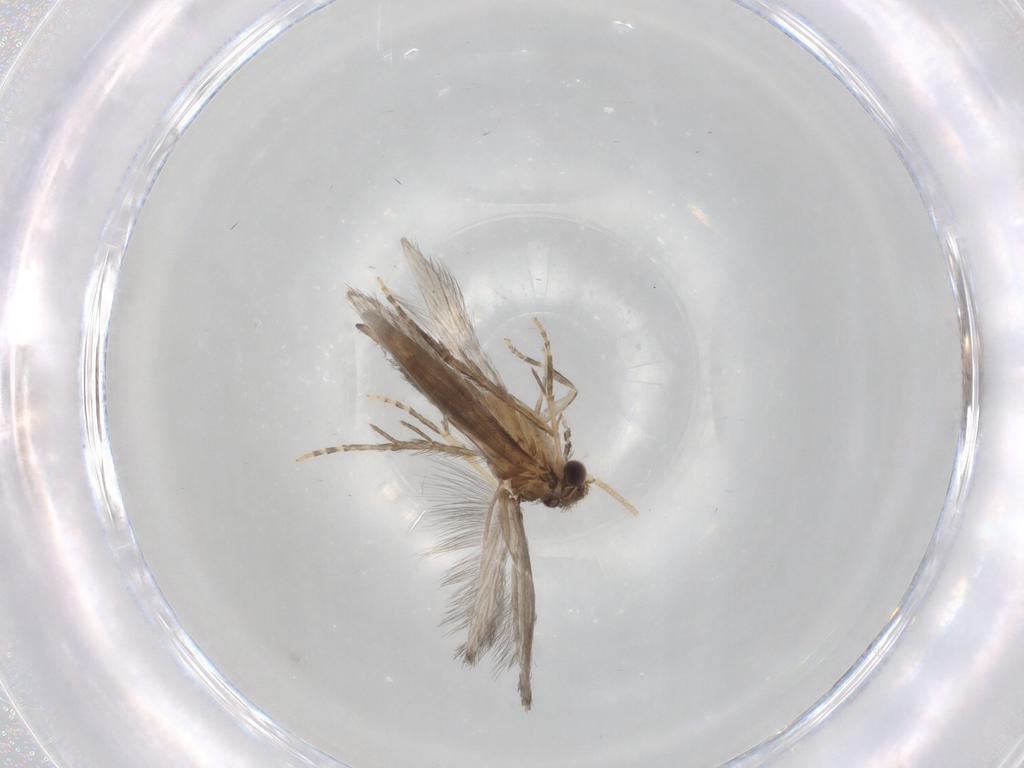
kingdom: Animalia
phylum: Arthropoda
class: Insecta
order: Trichoptera
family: Hydroptilidae
